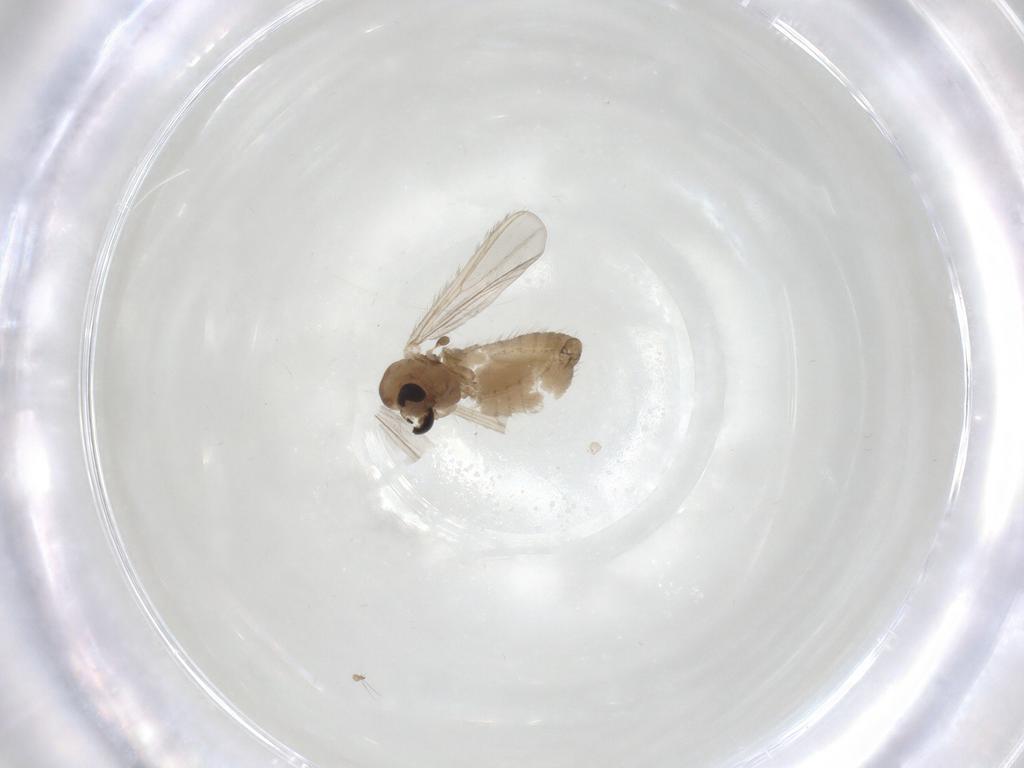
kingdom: Animalia
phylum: Arthropoda
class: Insecta
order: Diptera
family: Chironomidae
